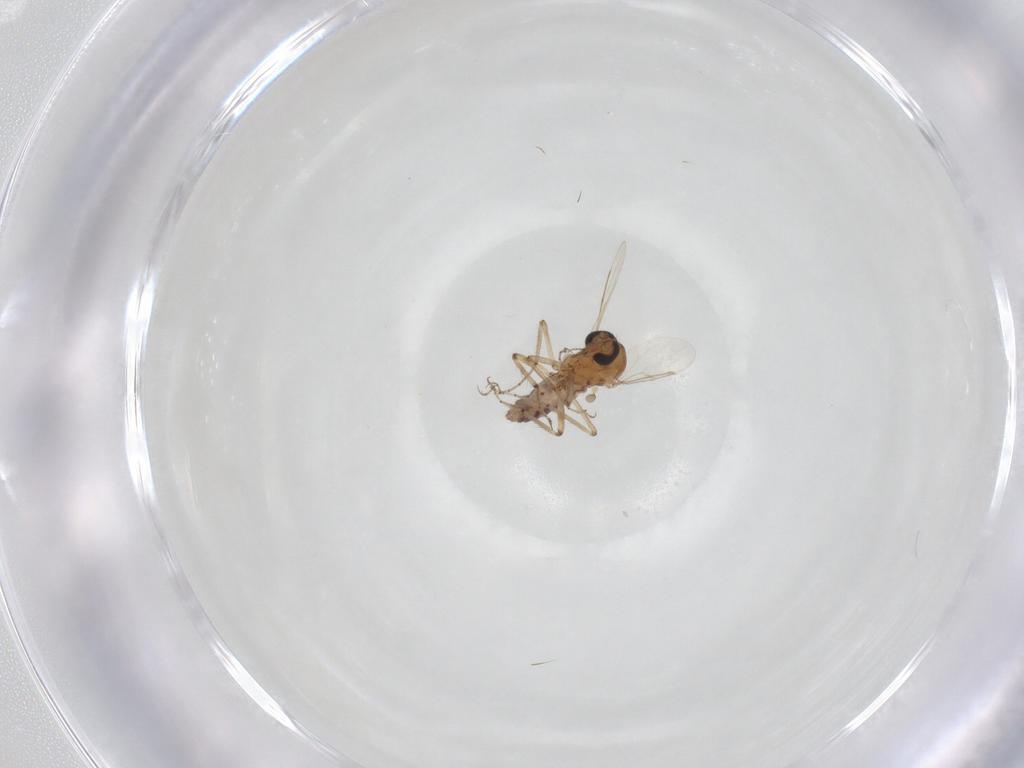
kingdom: Animalia
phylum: Arthropoda
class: Insecta
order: Diptera
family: Ceratopogonidae
